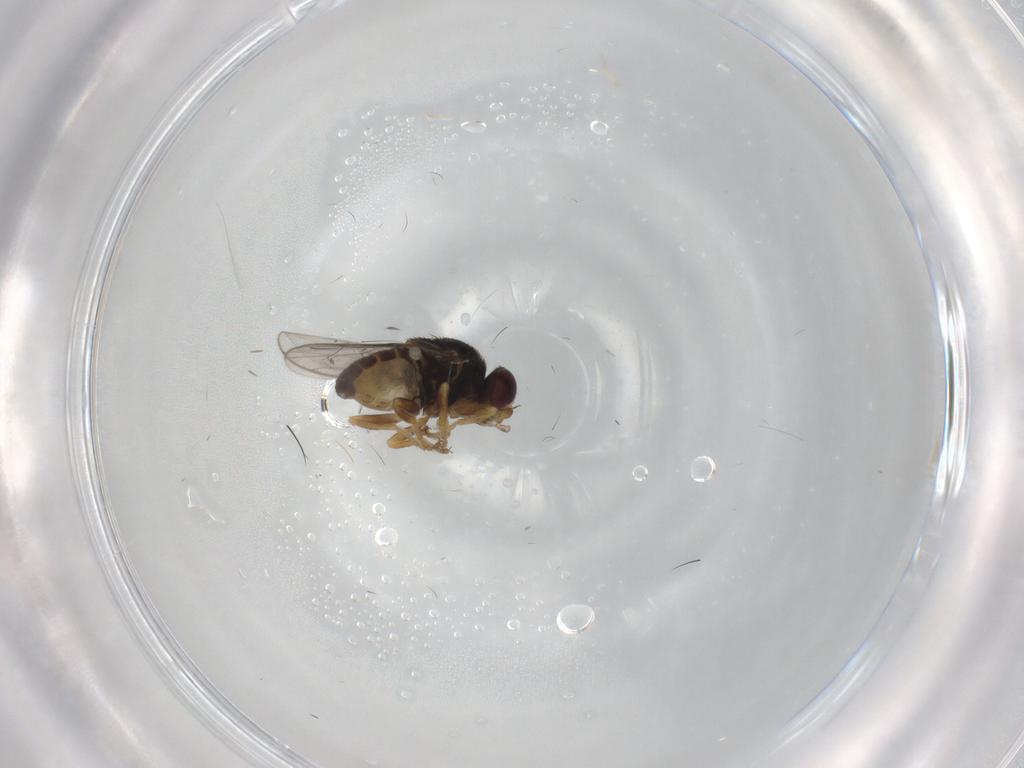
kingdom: Animalia
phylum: Arthropoda
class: Insecta
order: Diptera
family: Chloropidae
